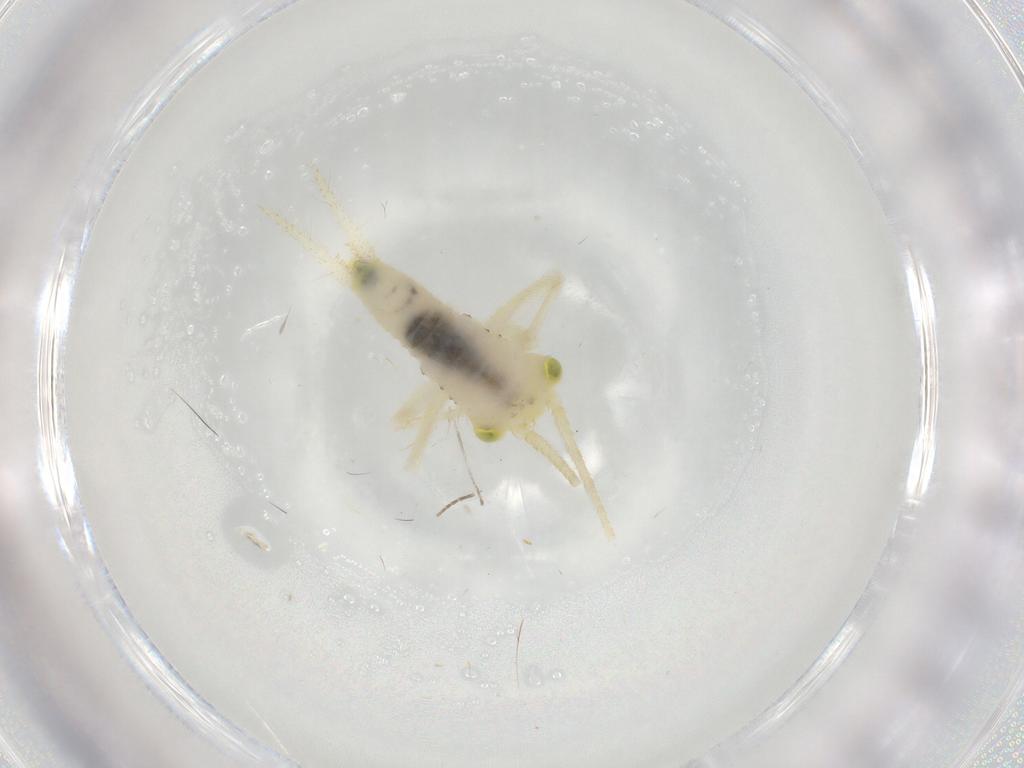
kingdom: Animalia
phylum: Arthropoda
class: Insecta
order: Orthoptera
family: Trigonidiidae
